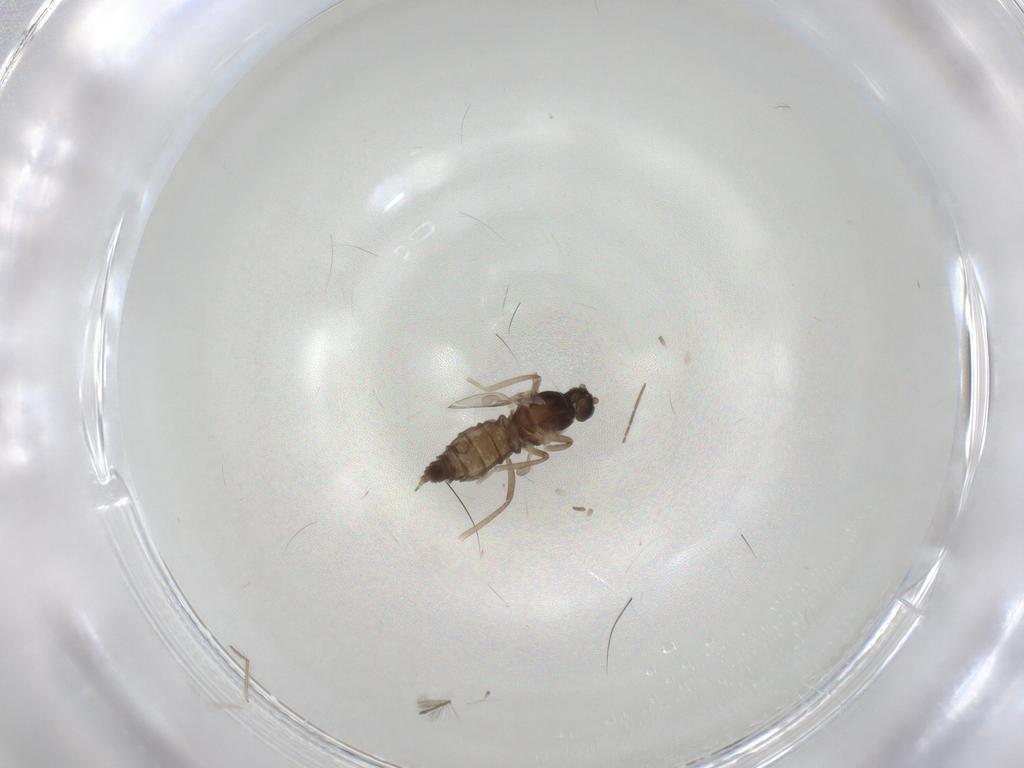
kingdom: Animalia
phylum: Arthropoda
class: Insecta
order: Diptera
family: Cecidomyiidae
